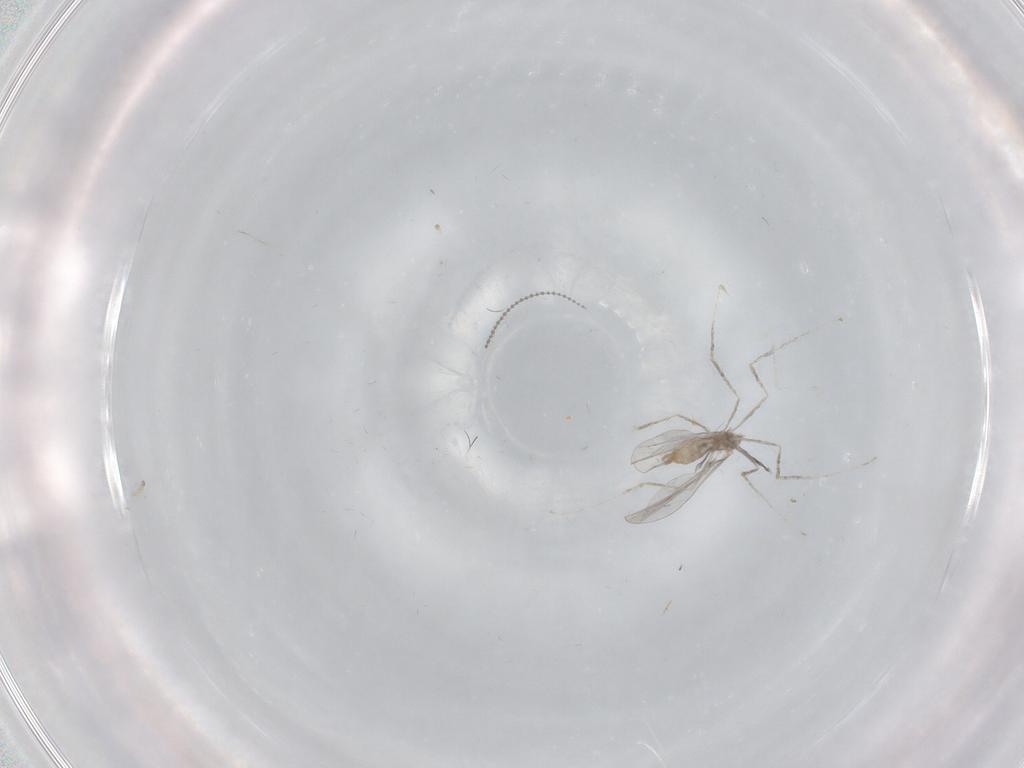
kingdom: Animalia
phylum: Arthropoda
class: Insecta
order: Diptera
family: Cecidomyiidae
